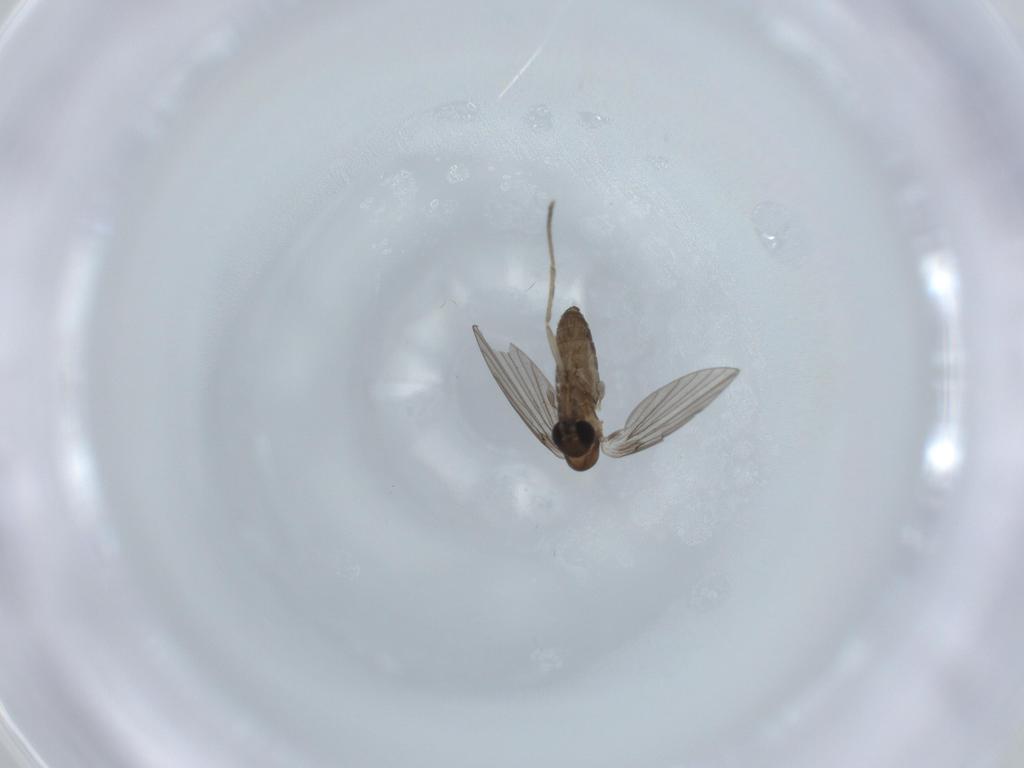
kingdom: Animalia
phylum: Arthropoda
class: Insecta
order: Diptera
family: Psychodidae
